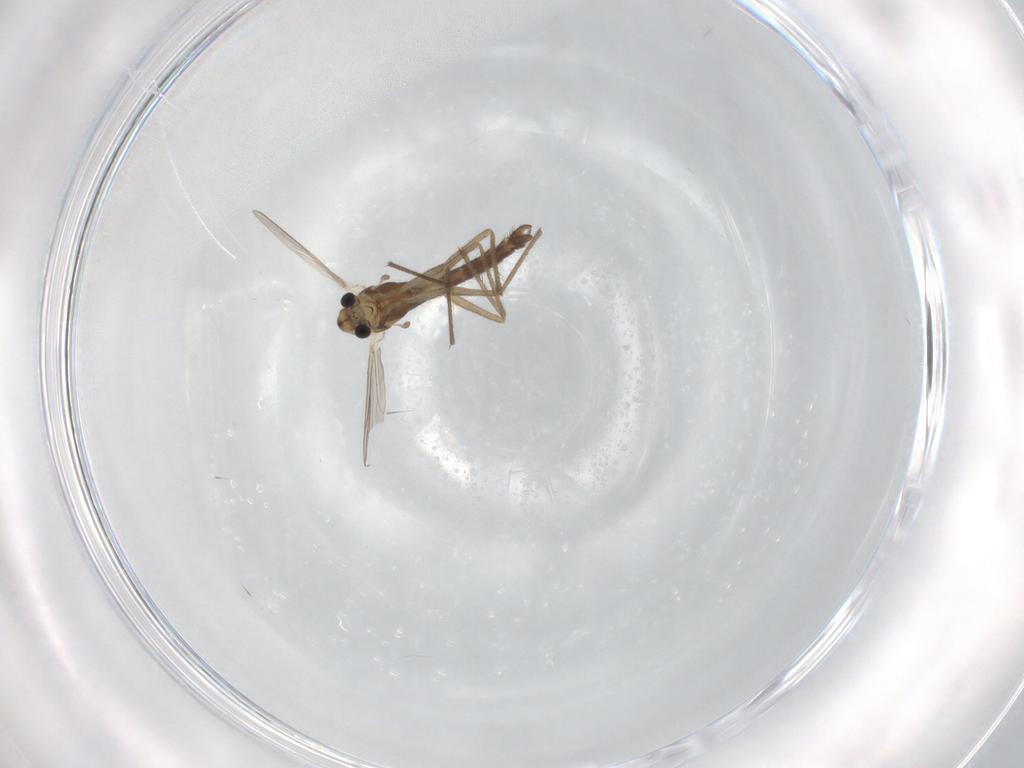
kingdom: Animalia
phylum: Arthropoda
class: Insecta
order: Diptera
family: Chironomidae
